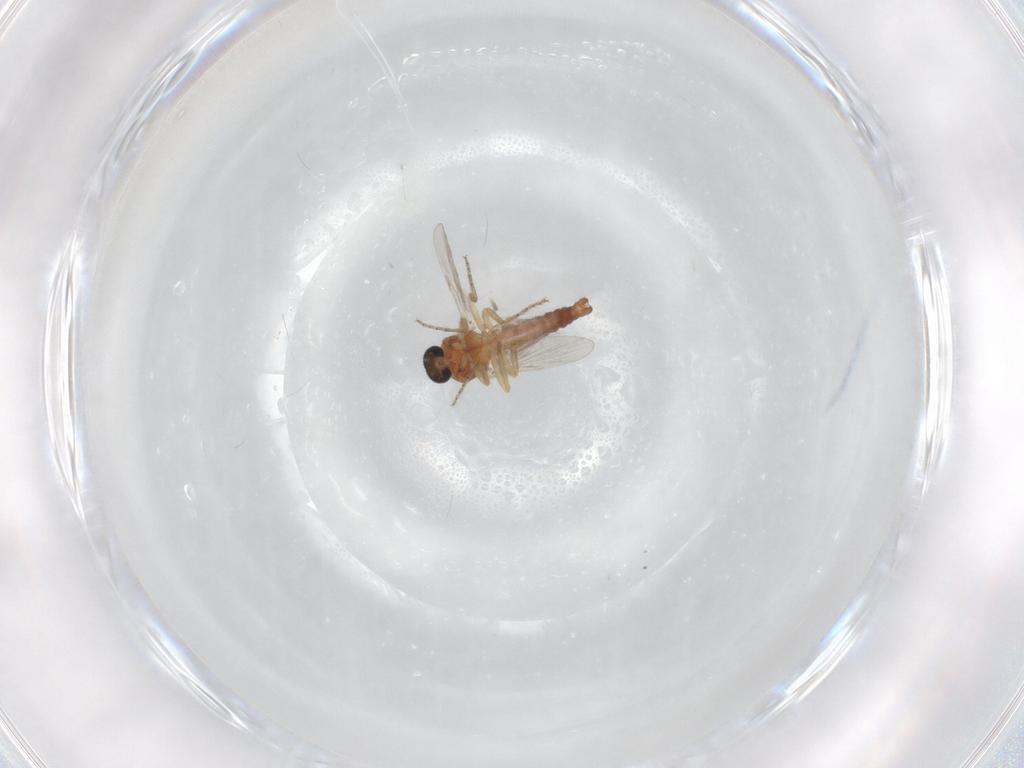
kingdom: Animalia
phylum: Arthropoda
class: Insecta
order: Diptera
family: Ceratopogonidae
